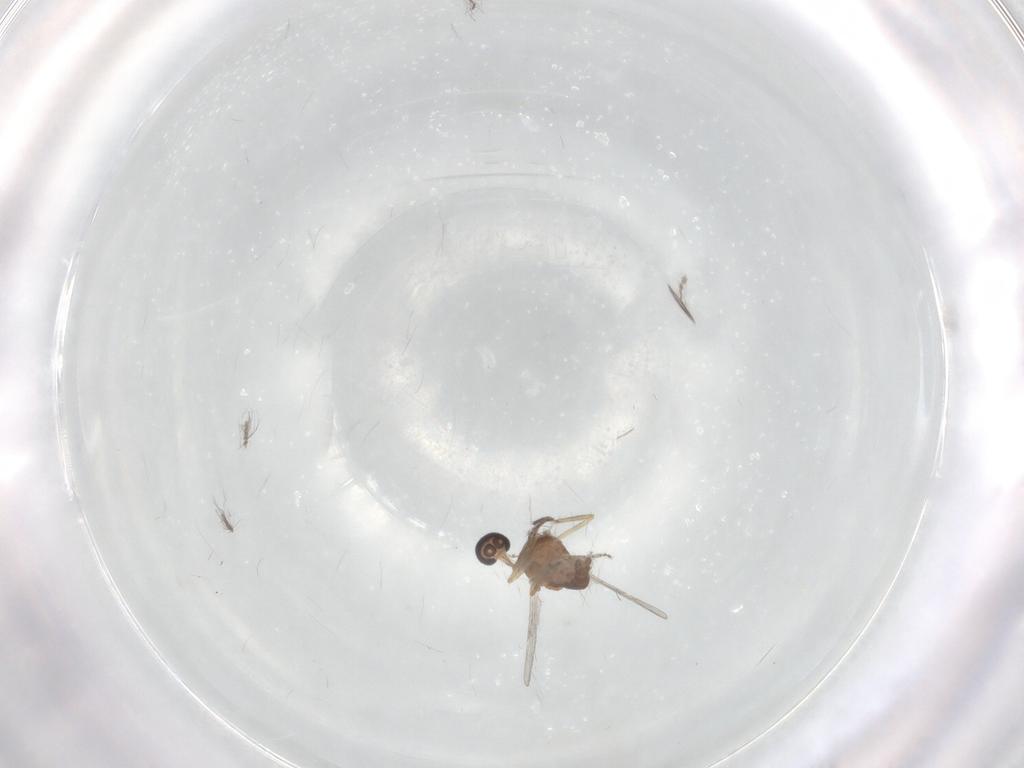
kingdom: Animalia
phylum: Arthropoda
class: Insecta
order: Diptera
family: Ceratopogonidae
